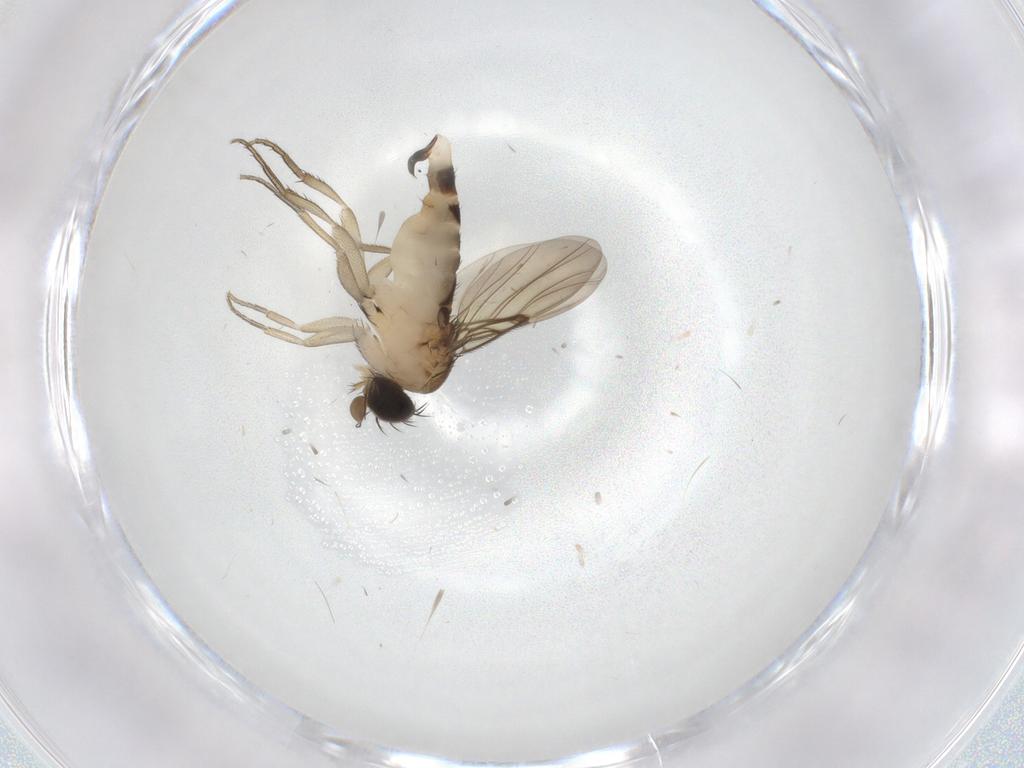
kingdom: Animalia
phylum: Arthropoda
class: Insecta
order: Diptera
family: Phoridae
